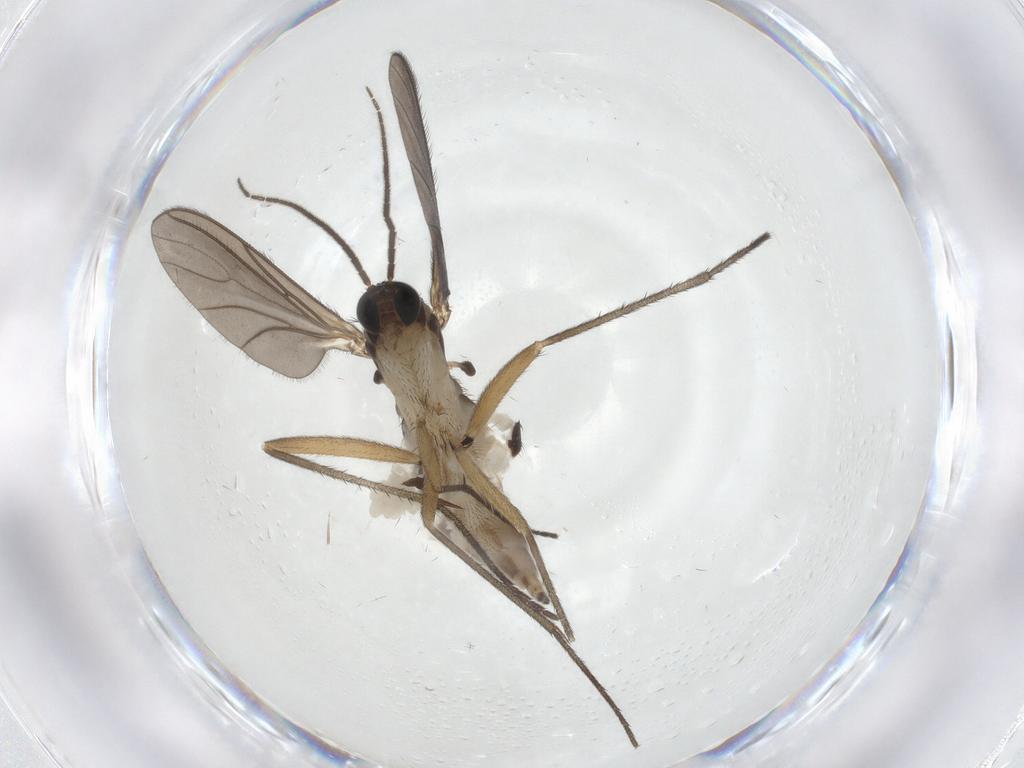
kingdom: Animalia
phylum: Arthropoda
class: Insecta
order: Diptera
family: Sciaridae
